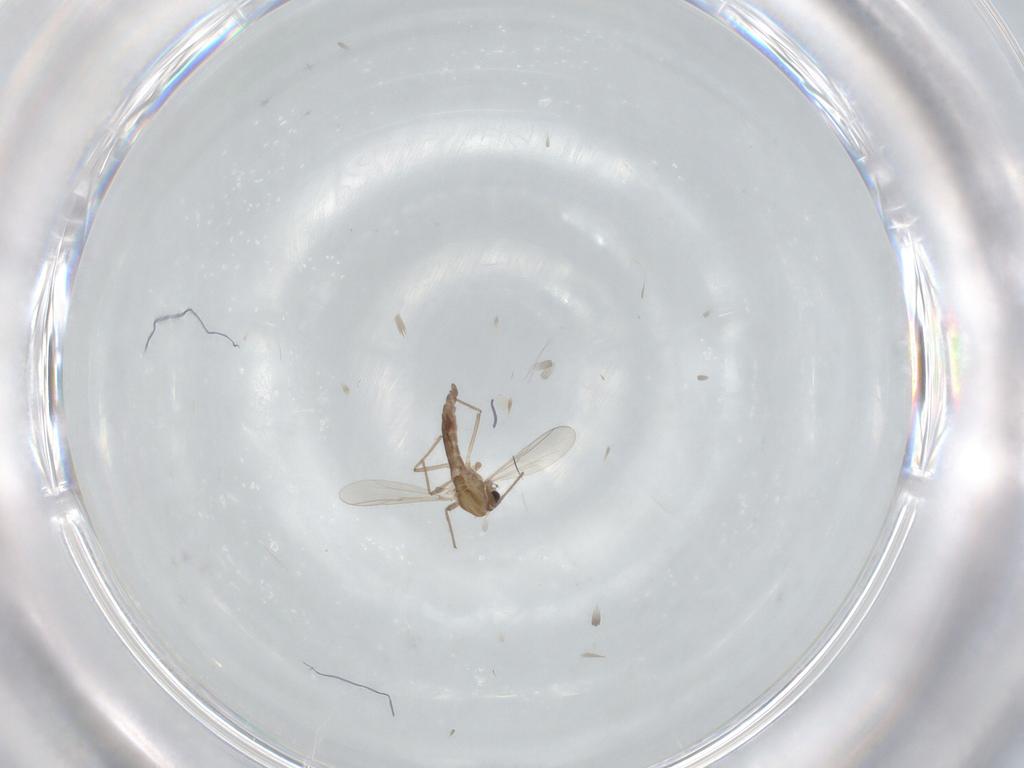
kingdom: Animalia
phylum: Arthropoda
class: Insecta
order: Diptera
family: Chironomidae
